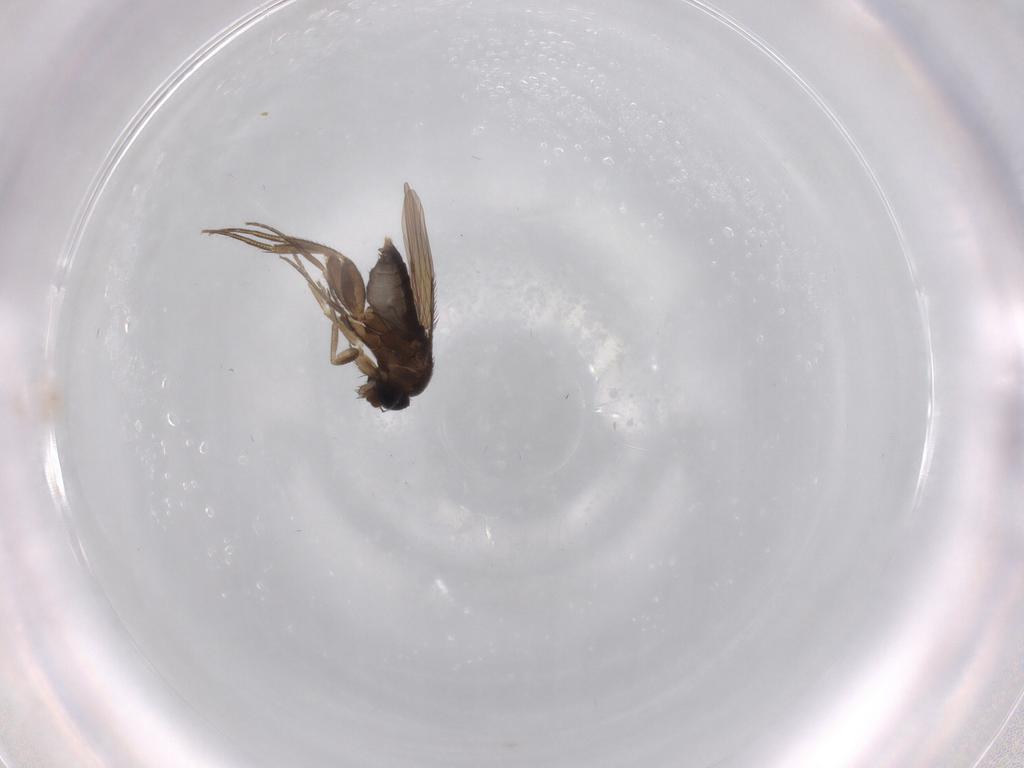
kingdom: Animalia
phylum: Arthropoda
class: Insecta
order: Diptera
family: Phoridae
